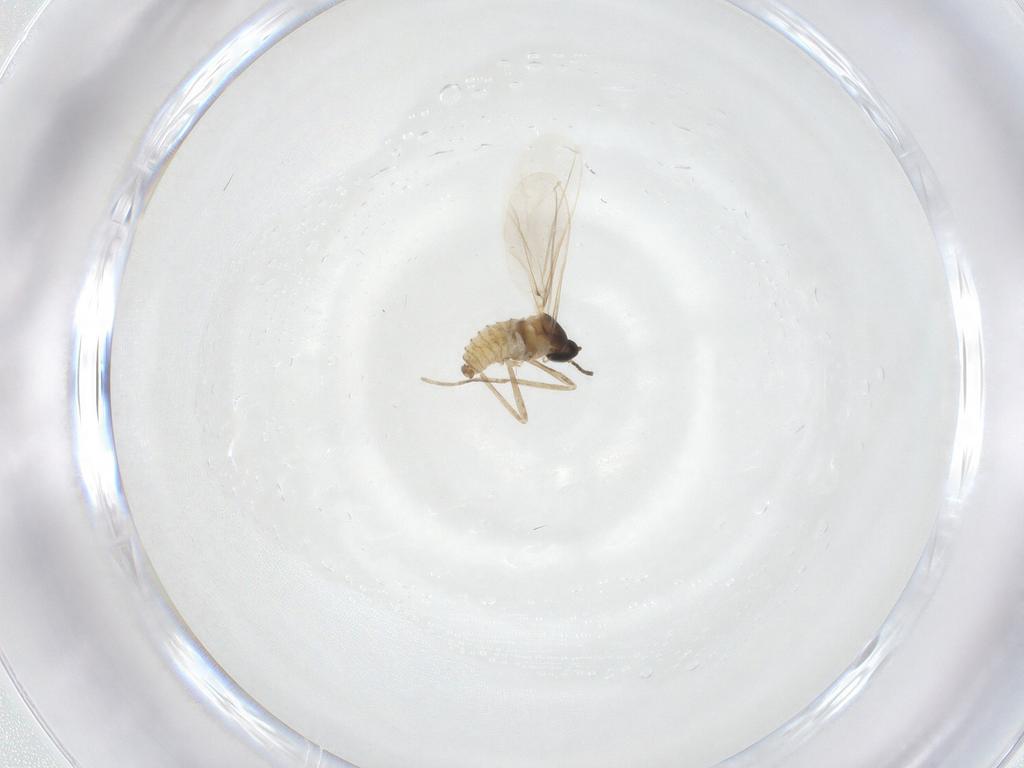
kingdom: Animalia
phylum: Arthropoda
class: Insecta
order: Diptera
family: Cecidomyiidae
